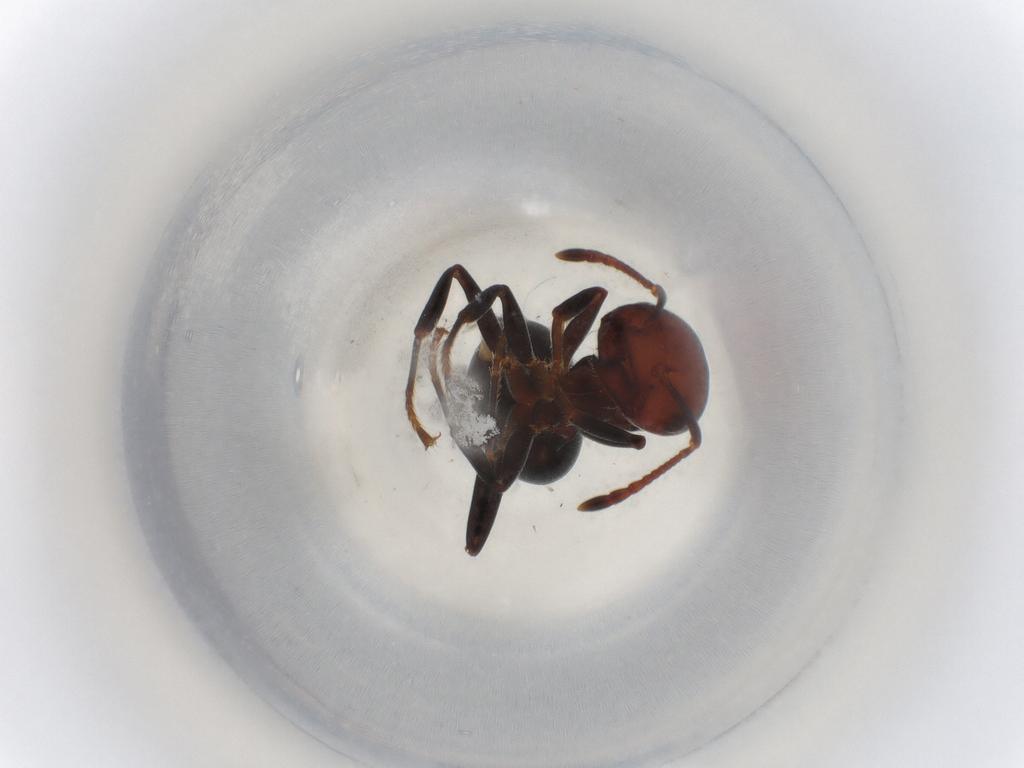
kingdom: Animalia
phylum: Arthropoda
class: Insecta
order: Hymenoptera
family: Formicidae
